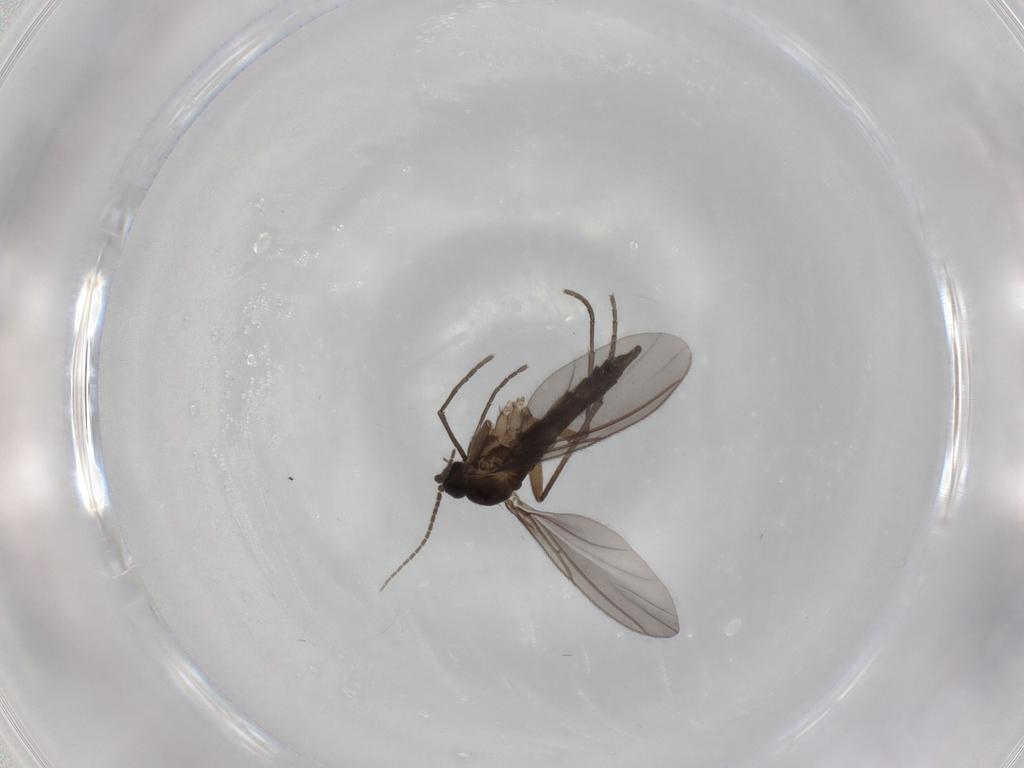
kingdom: Animalia
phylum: Arthropoda
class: Insecta
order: Diptera
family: Sciaridae
